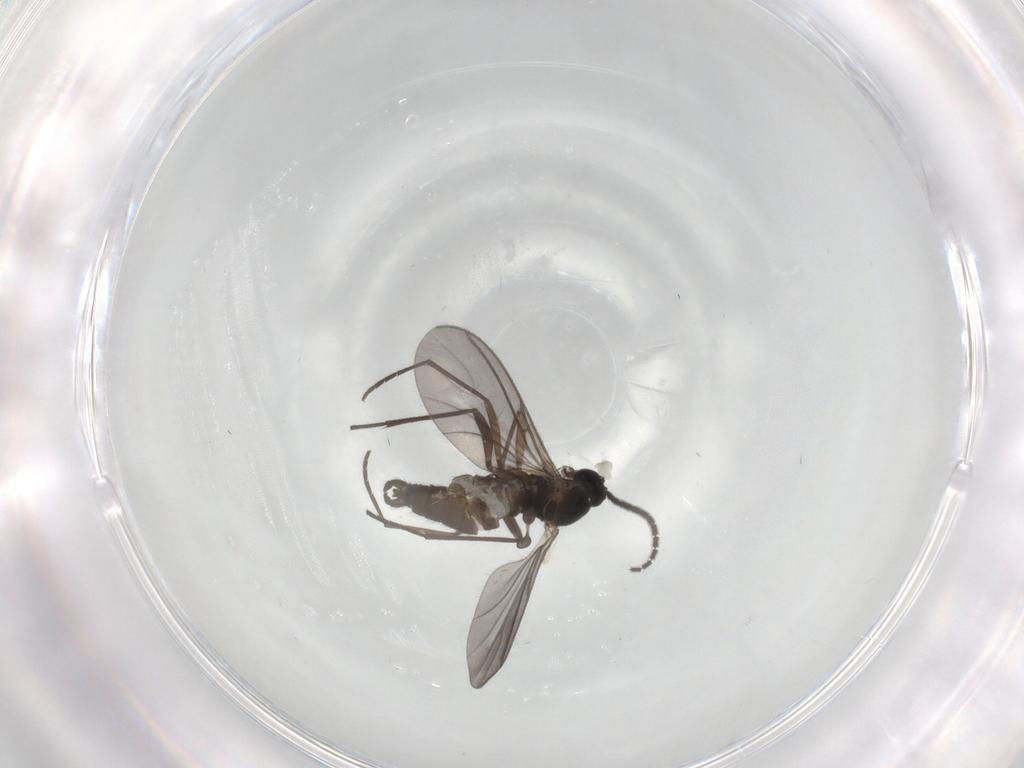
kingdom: Animalia
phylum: Arthropoda
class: Insecta
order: Diptera
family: Ceratopogonidae
